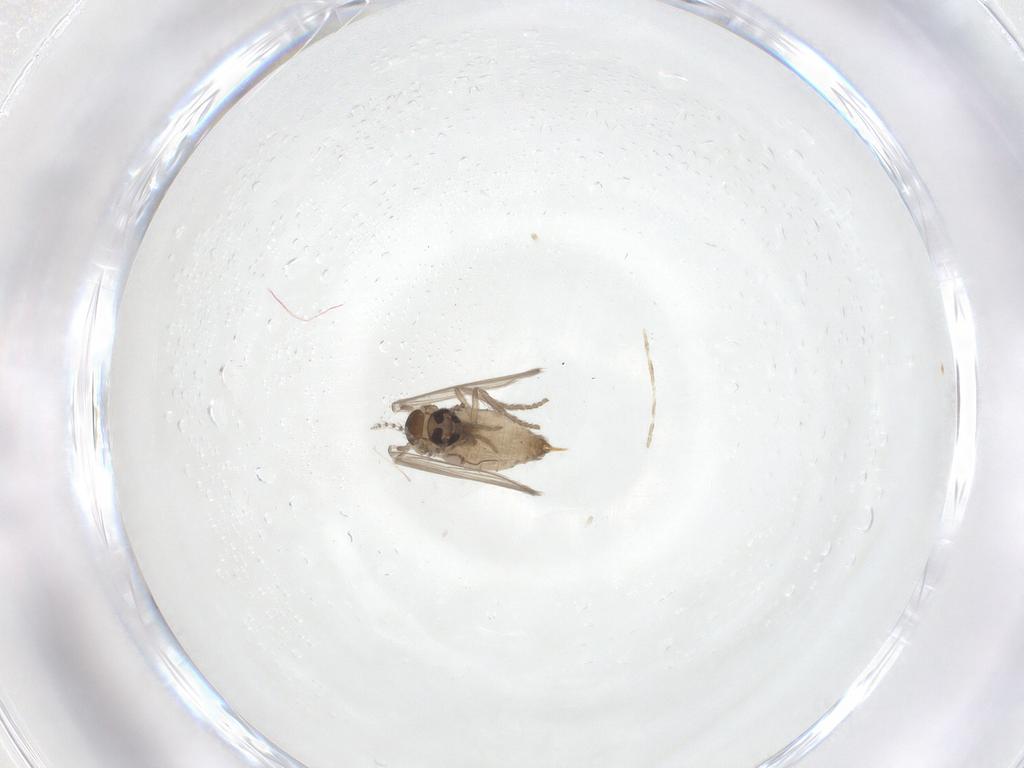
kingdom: Animalia
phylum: Arthropoda
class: Insecta
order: Diptera
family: Psychodidae
